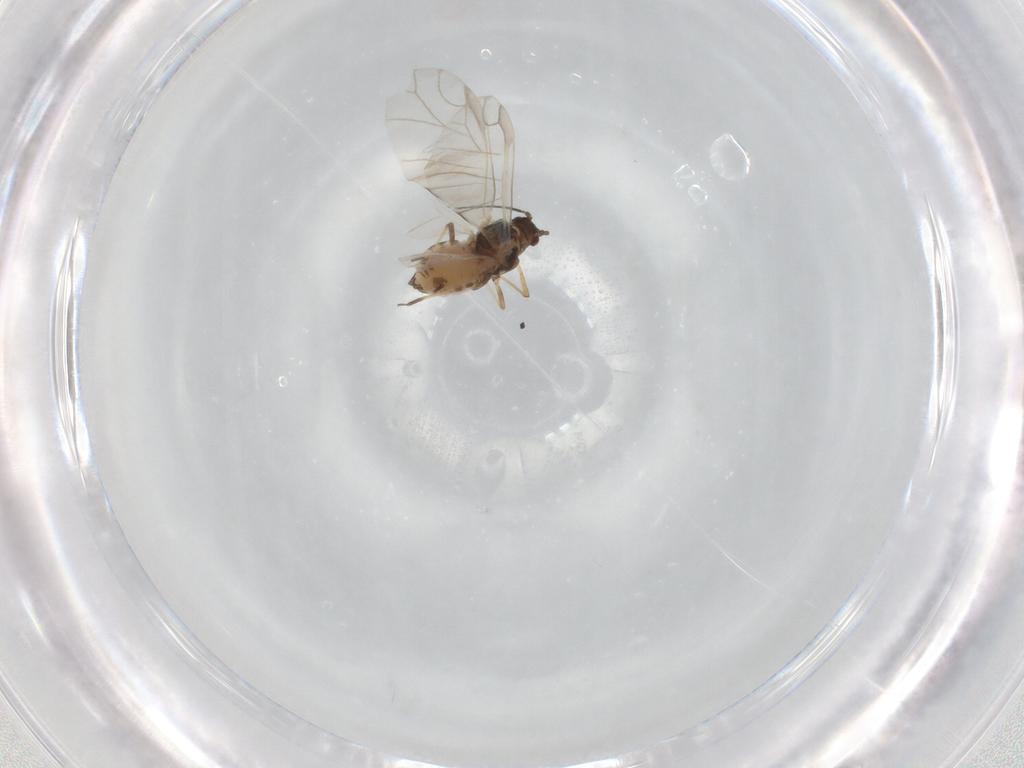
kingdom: Animalia
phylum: Arthropoda
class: Insecta
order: Hemiptera
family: Aphididae
